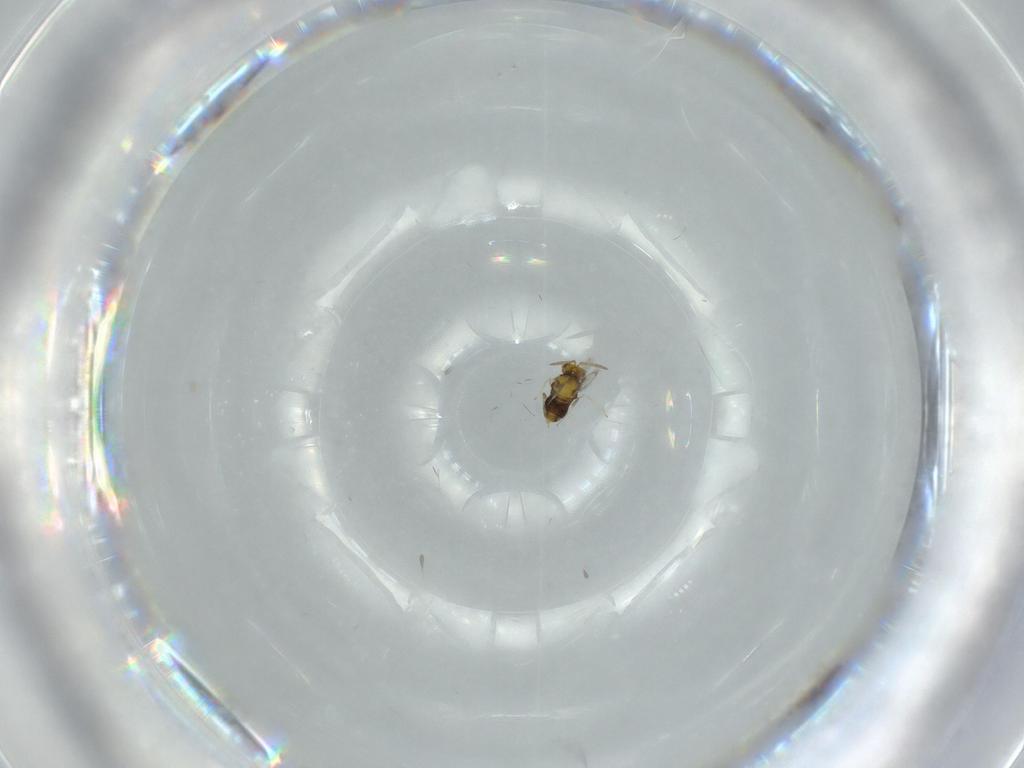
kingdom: Animalia
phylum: Arthropoda
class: Insecta
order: Hymenoptera
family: Aphelinidae
